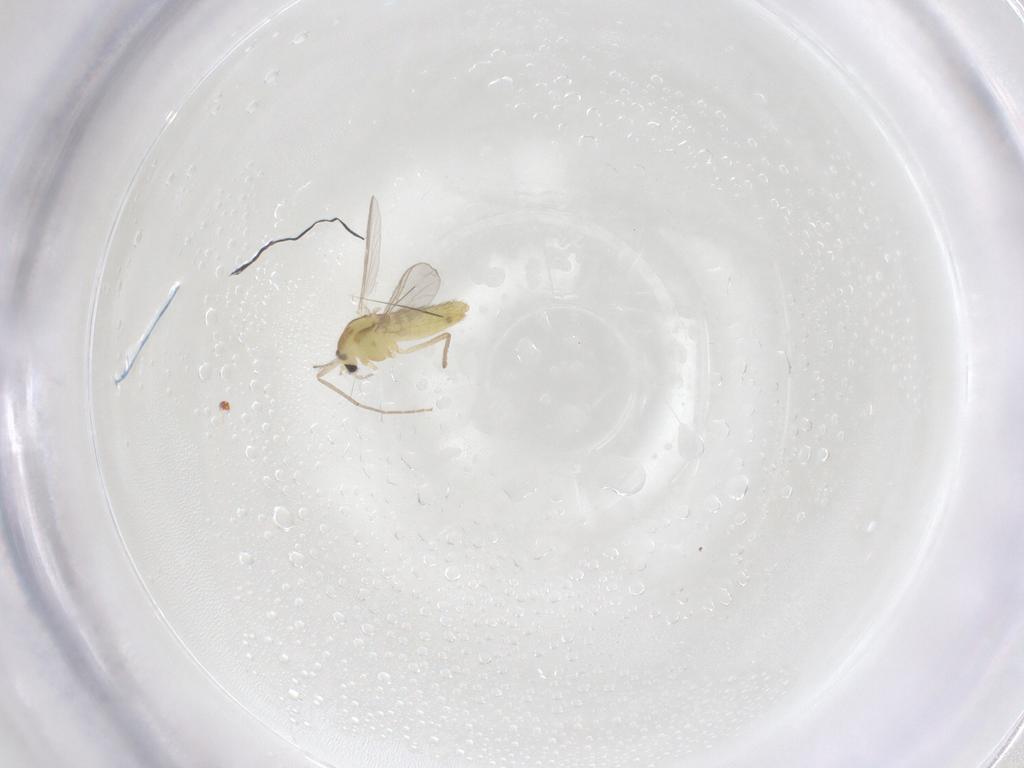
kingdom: Animalia
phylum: Arthropoda
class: Insecta
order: Diptera
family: Chironomidae
